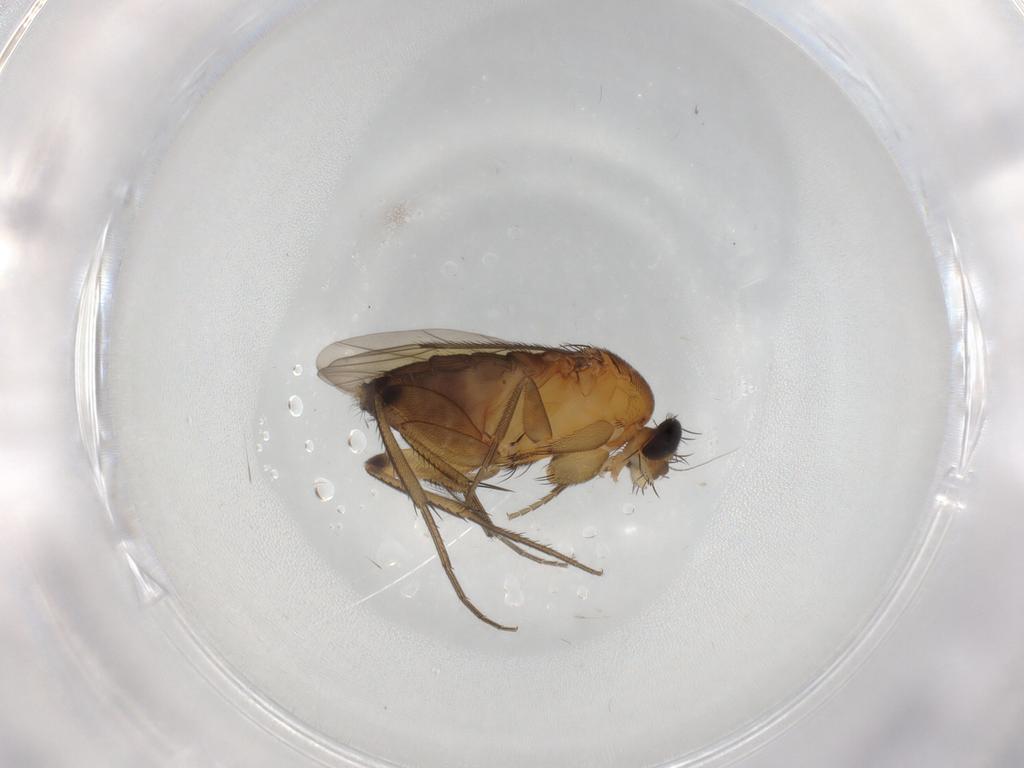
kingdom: Animalia
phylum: Arthropoda
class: Insecta
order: Diptera
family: Phoridae
